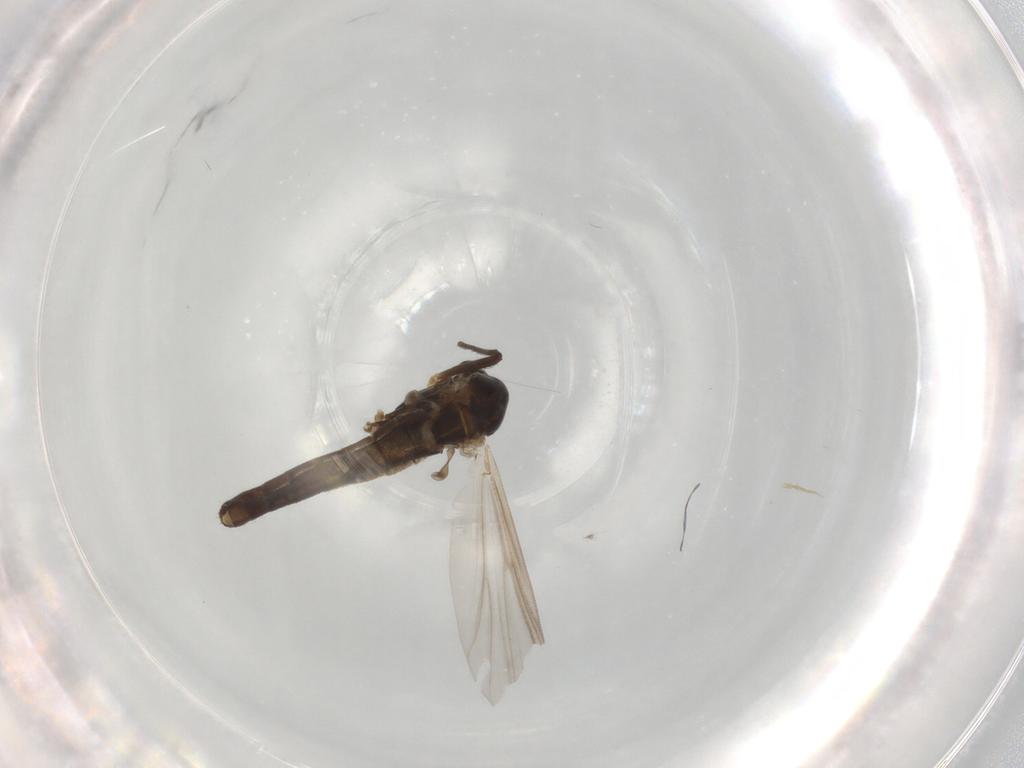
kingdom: Animalia
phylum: Arthropoda
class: Insecta
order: Diptera
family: Chironomidae
